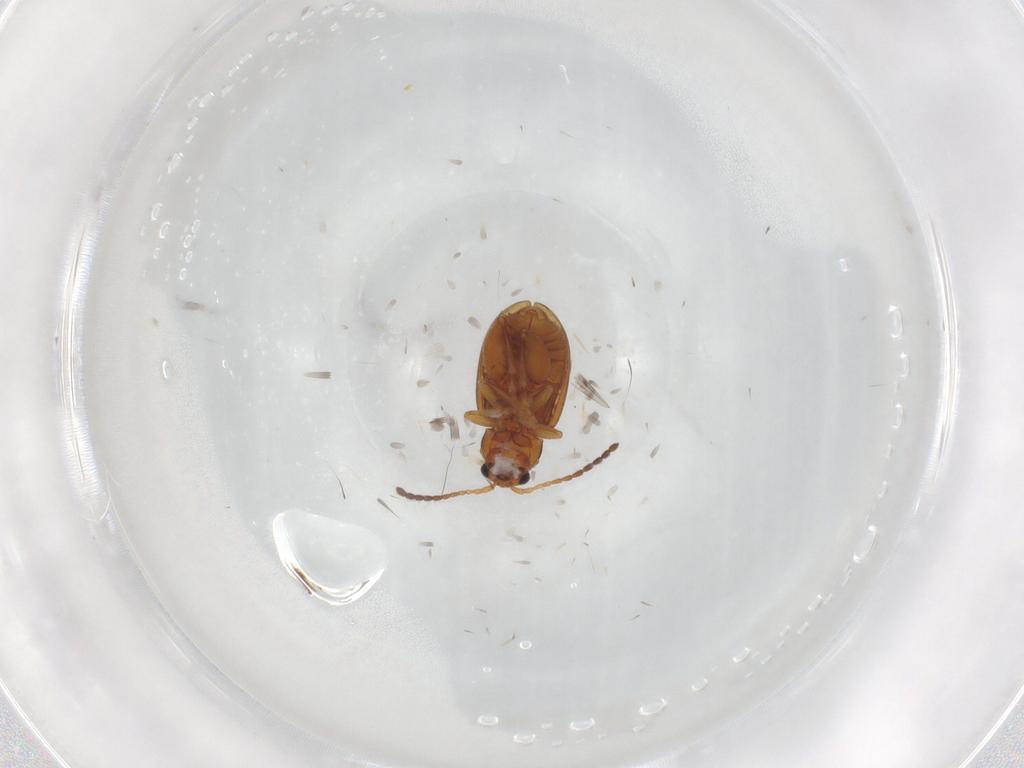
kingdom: Animalia
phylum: Arthropoda
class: Insecta
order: Coleoptera
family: Chrysomelidae
